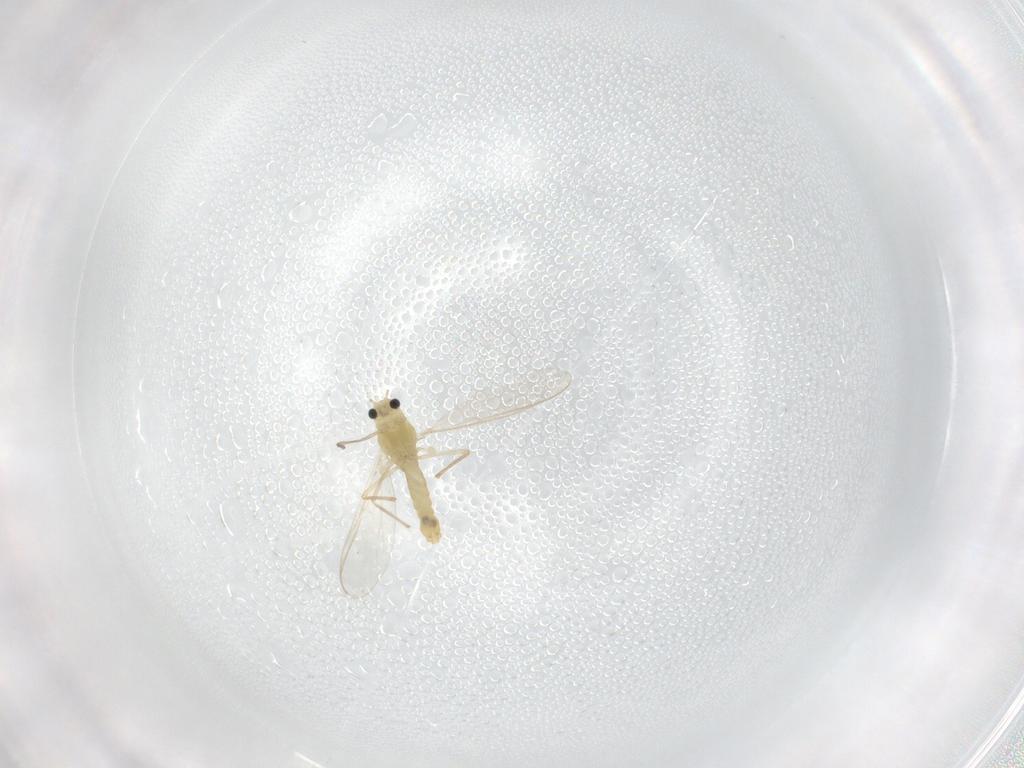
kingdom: Animalia
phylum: Arthropoda
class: Insecta
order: Diptera
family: Chironomidae
